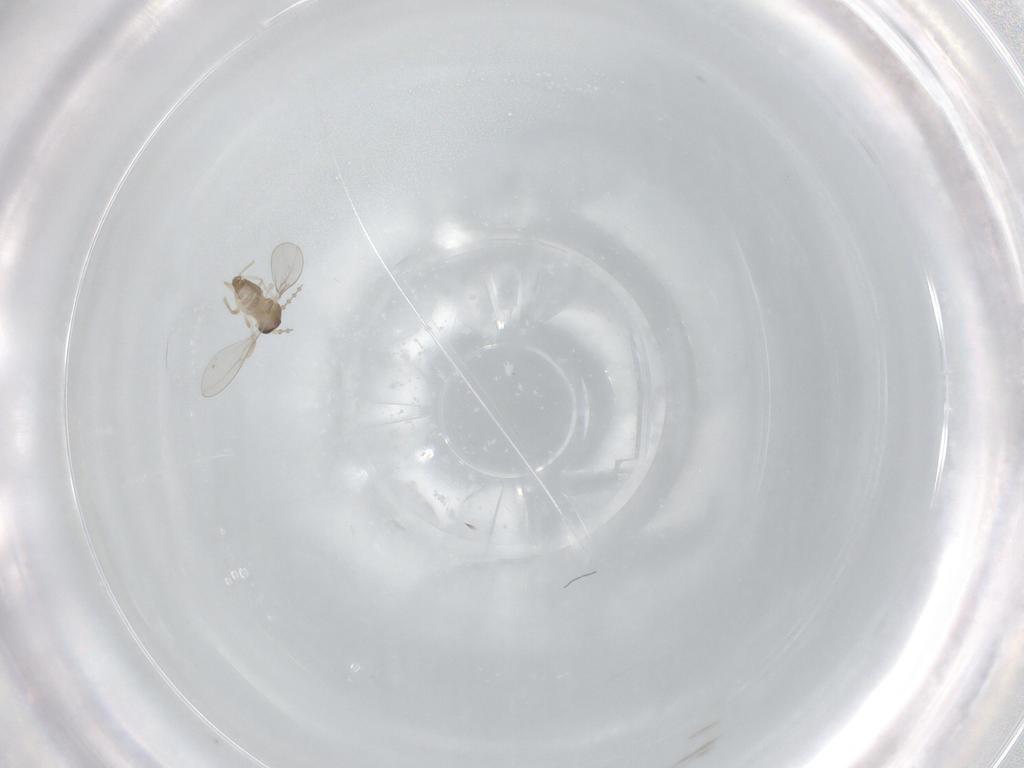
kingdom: Animalia
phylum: Arthropoda
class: Insecta
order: Diptera
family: Cecidomyiidae
